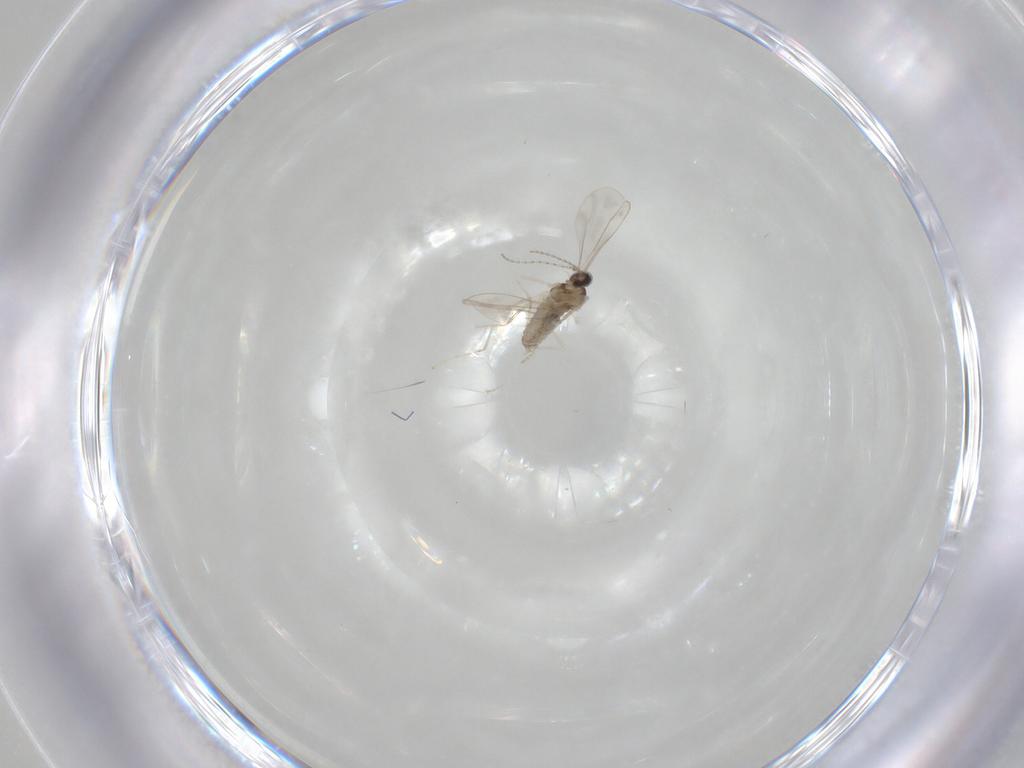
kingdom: Animalia
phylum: Arthropoda
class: Insecta
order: Diptera
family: Cecidomyiidae
